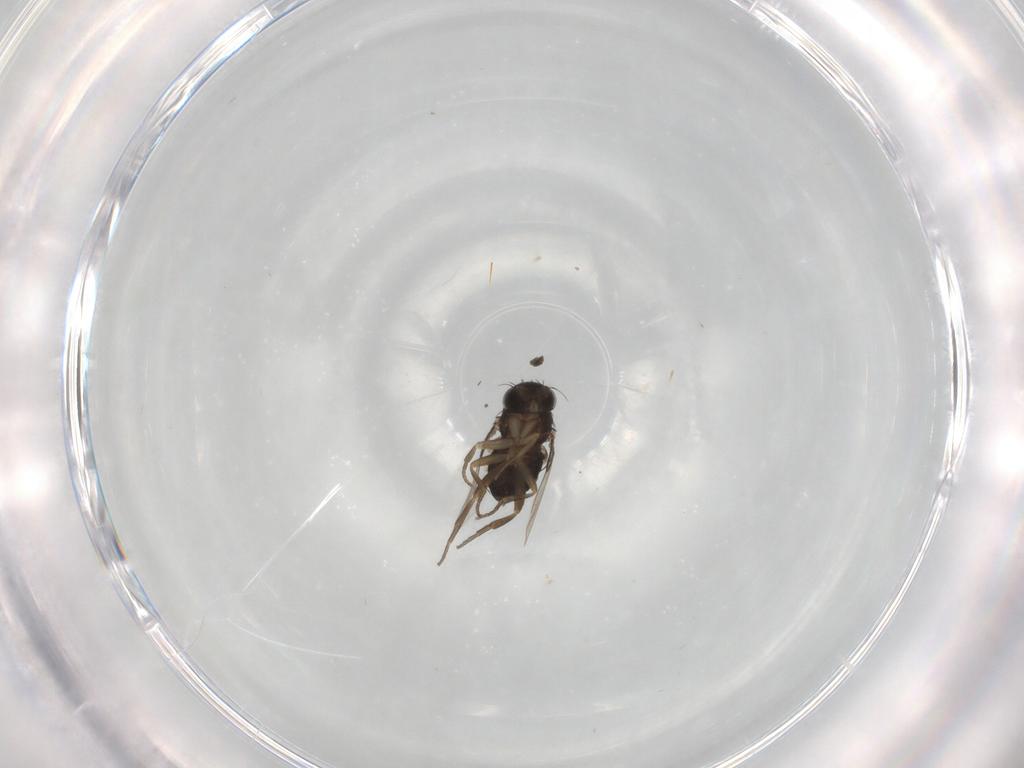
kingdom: Animalia
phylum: Arthropoda
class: Insecta
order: Diptera
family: Phoridae
